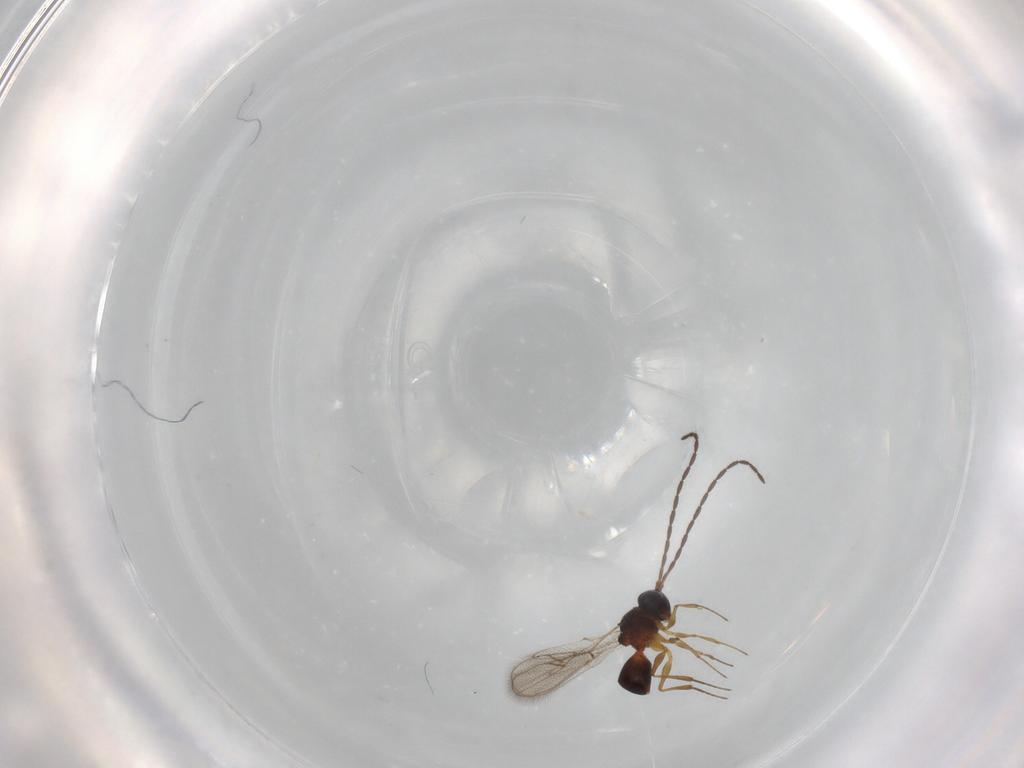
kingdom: Animalia
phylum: Arthropoda
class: Insecta
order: Hymenoptera
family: Figitidae
